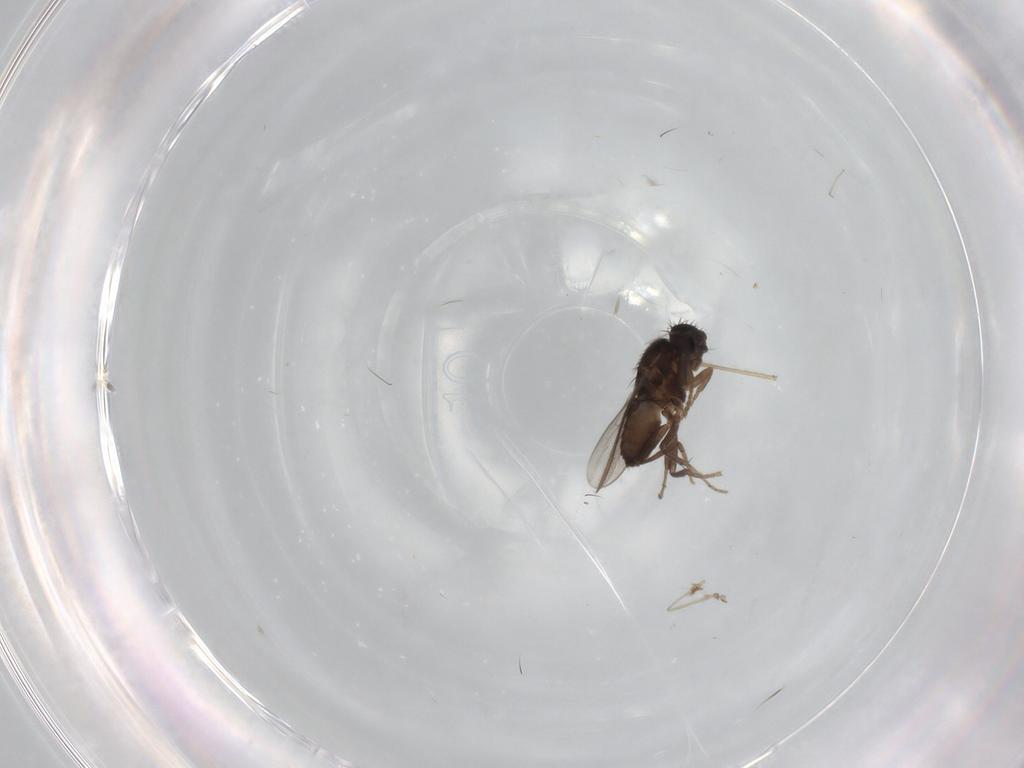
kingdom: Animalia
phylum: Arthropoda
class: Insecta
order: Diptera
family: Sphaeroceridae
